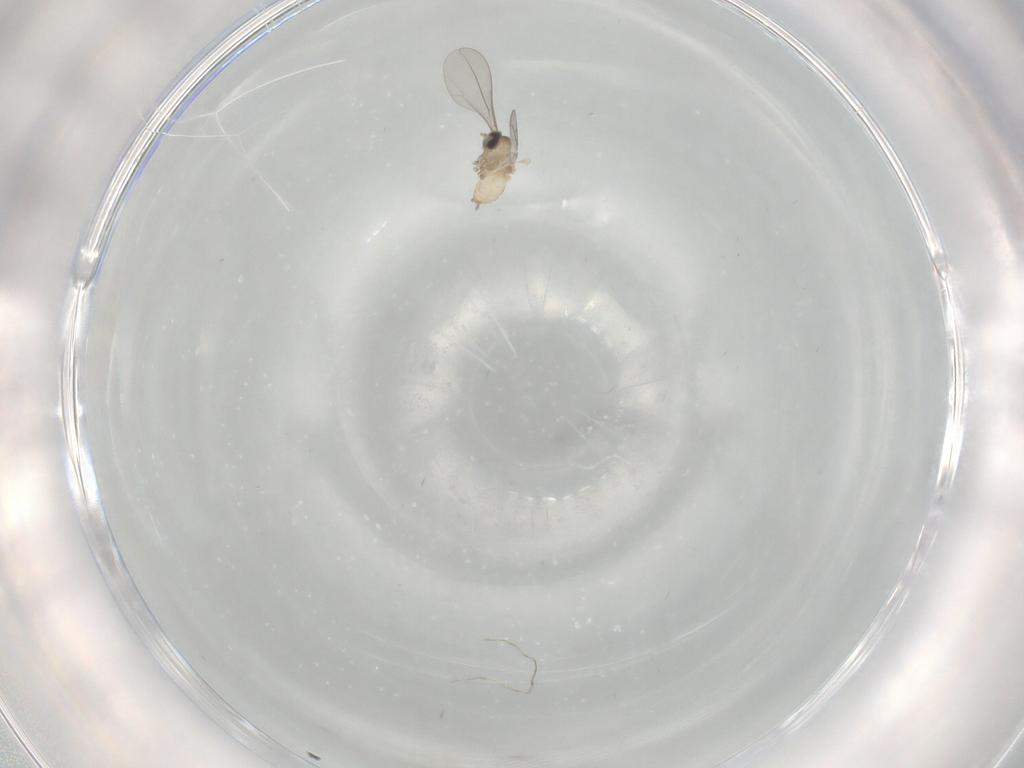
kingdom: Animalia
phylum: Arthropoda
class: Insecta
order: Diptera
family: Cecidomyiidae
